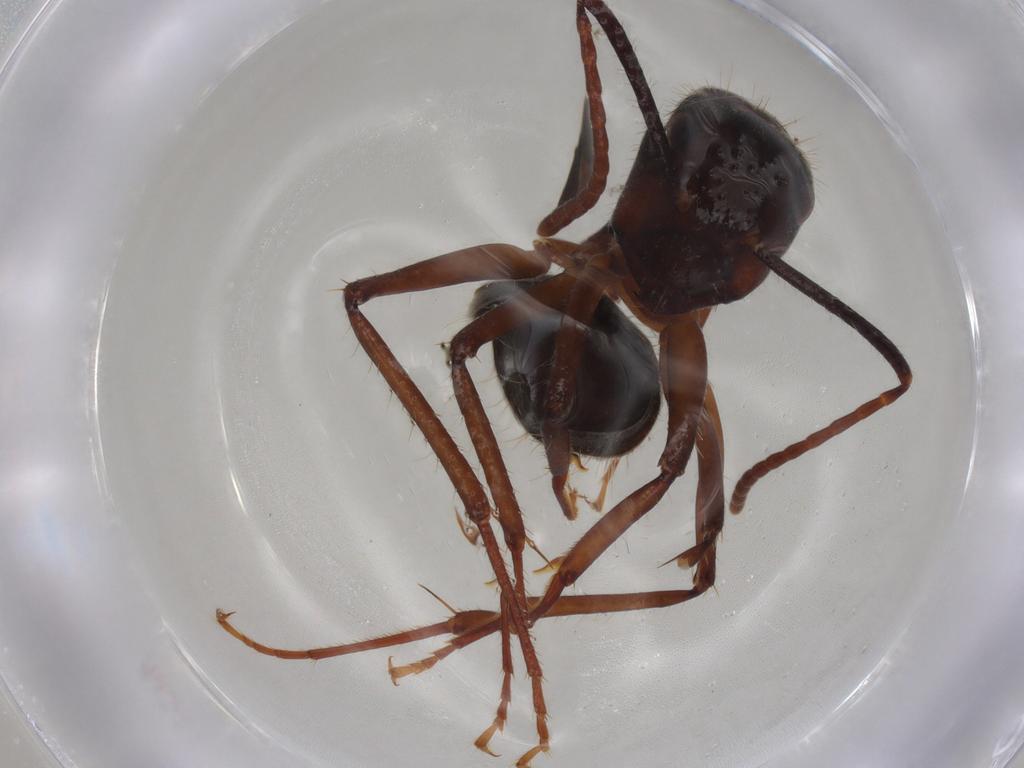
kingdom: Animalia
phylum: Arthropoda
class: Insecta
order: Hymenoptera
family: Formicidae
